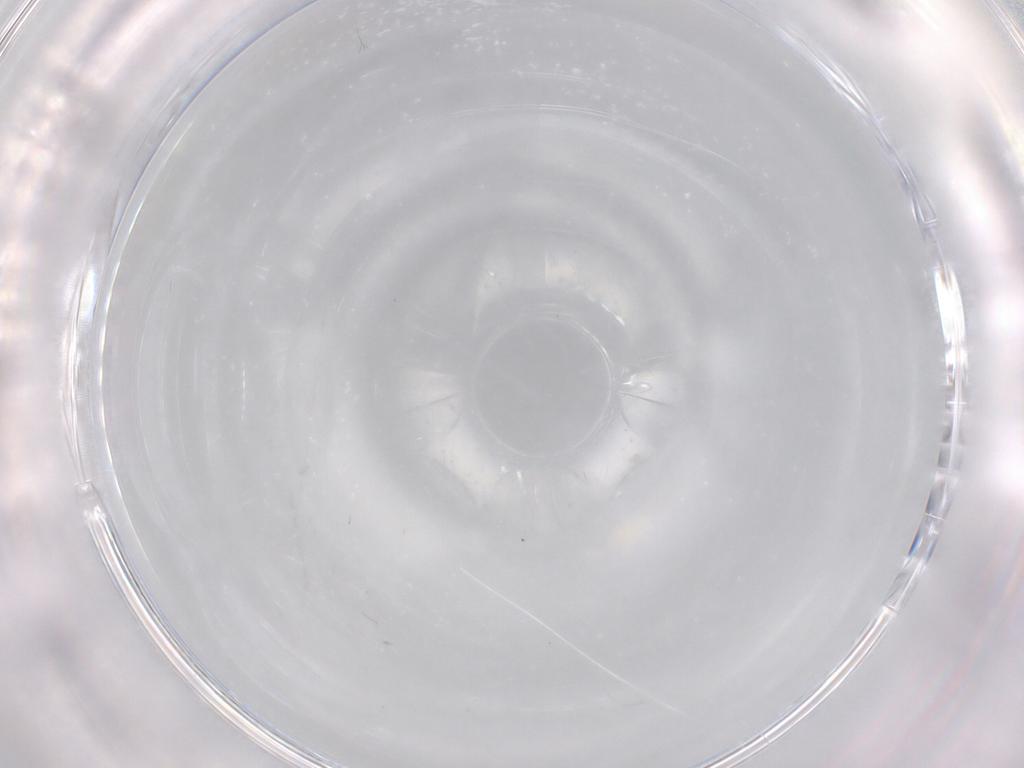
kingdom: Animalia
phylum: Arthropoda
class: Arachnida
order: Trombidiformes
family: Eupodidae
